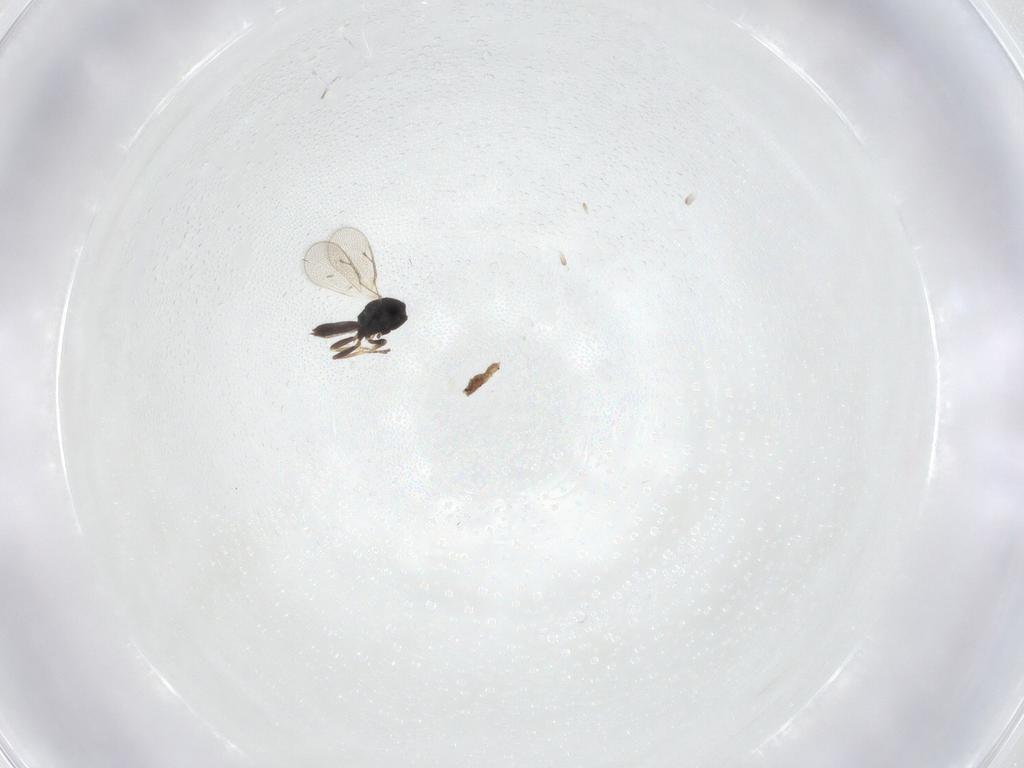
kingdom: Animalia
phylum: Arthropoda
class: Insecta
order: Hymenoptera
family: Pteromalidae
